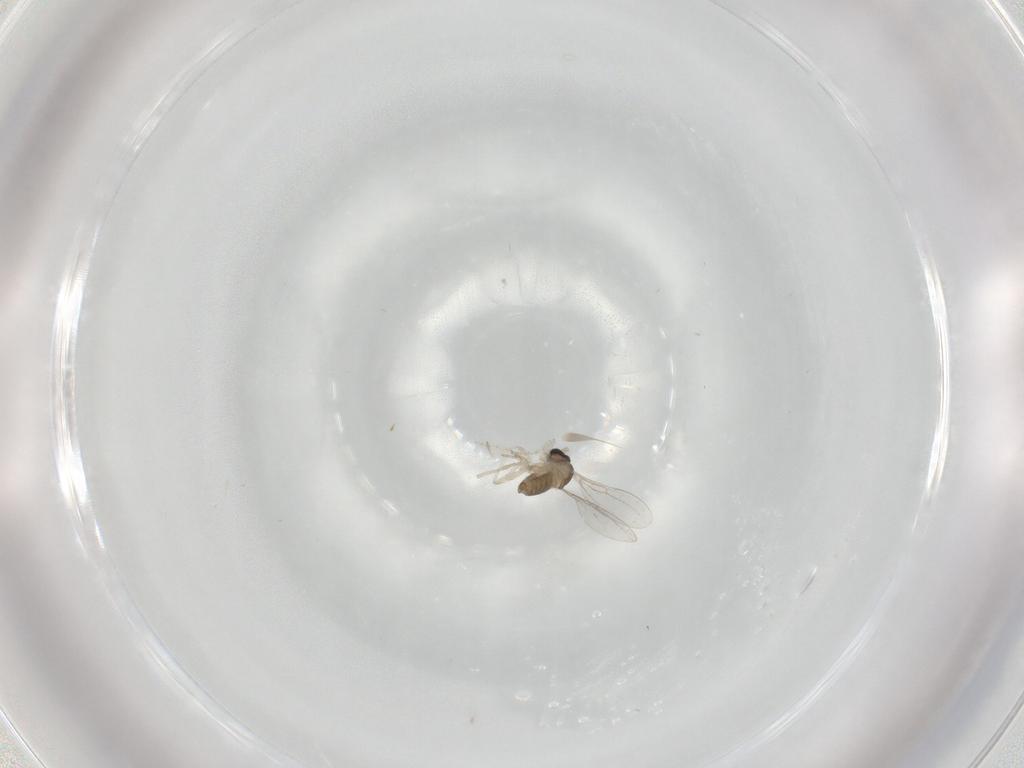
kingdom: Animalia
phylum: Arthropoda
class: Insecta
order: Diptera
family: Cecidomyiidae
